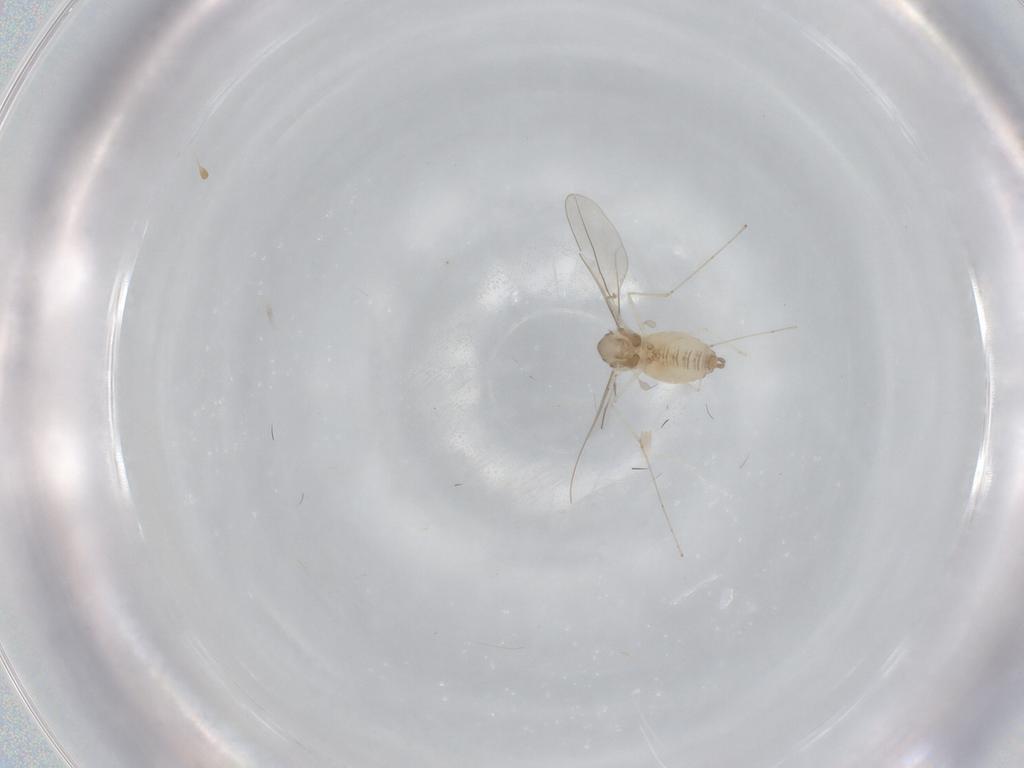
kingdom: Animalia
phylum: Arthropoda
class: Insecta
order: Diptera
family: Cecidomyiidae
